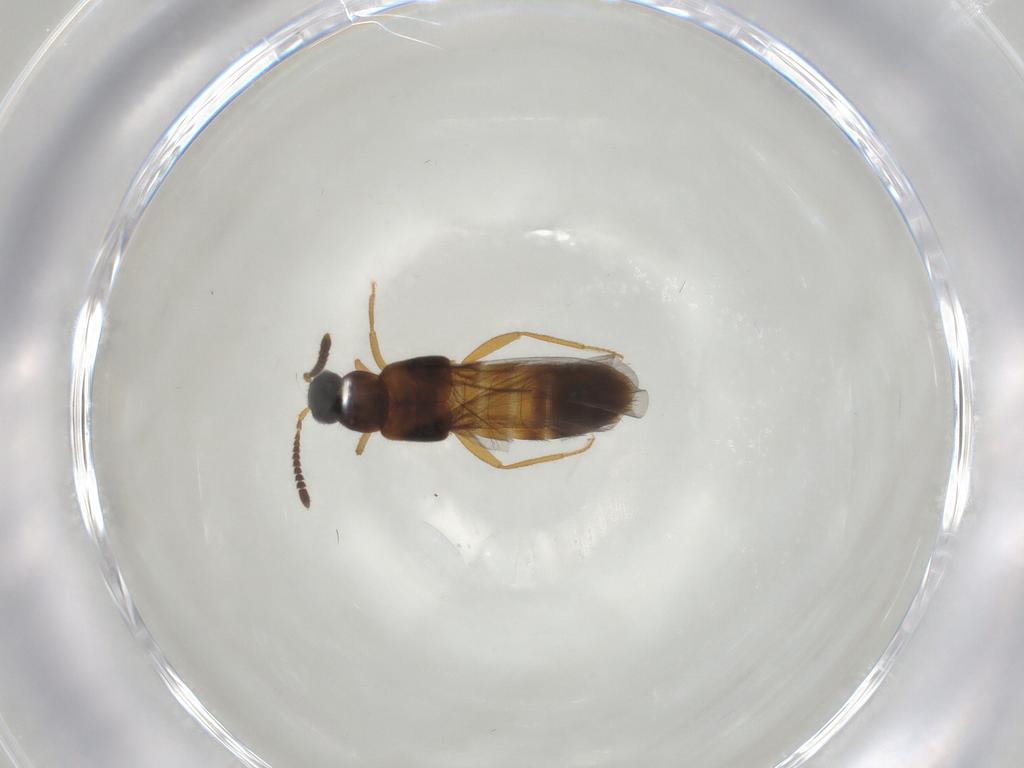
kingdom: Animalia
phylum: Arthropoda
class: Insecta
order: Coleoptera
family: Staphylinidae
